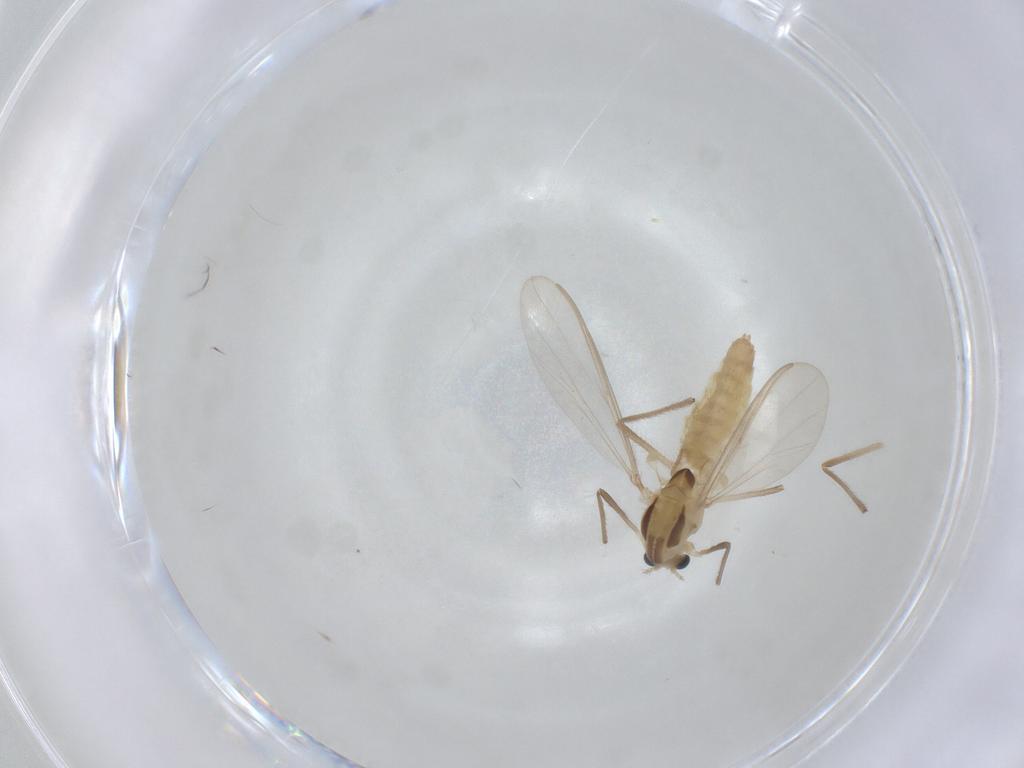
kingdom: Animalia
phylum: Arthropoda
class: Insecta
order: Diptera
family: Chironomidae
